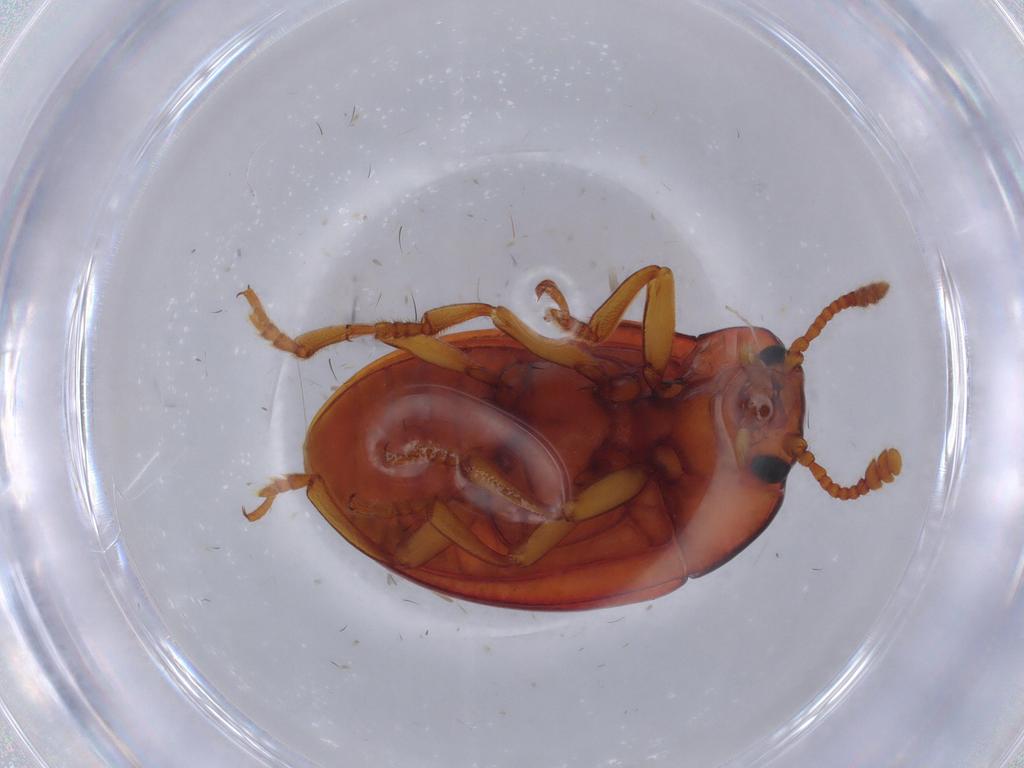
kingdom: Animalia
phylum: Arthropoda
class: Insecta
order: Coleoptera
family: Erotylidae
